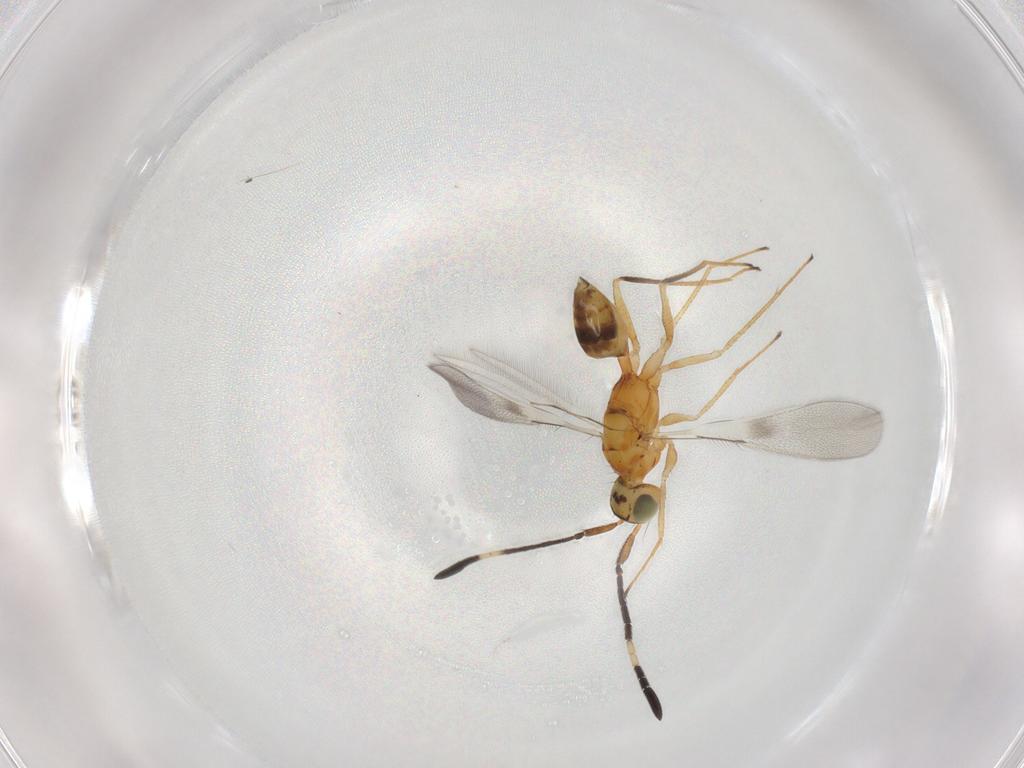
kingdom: Animalia
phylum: Arthropoda
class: Insecta
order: Hymenoptera
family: Mymaridae
